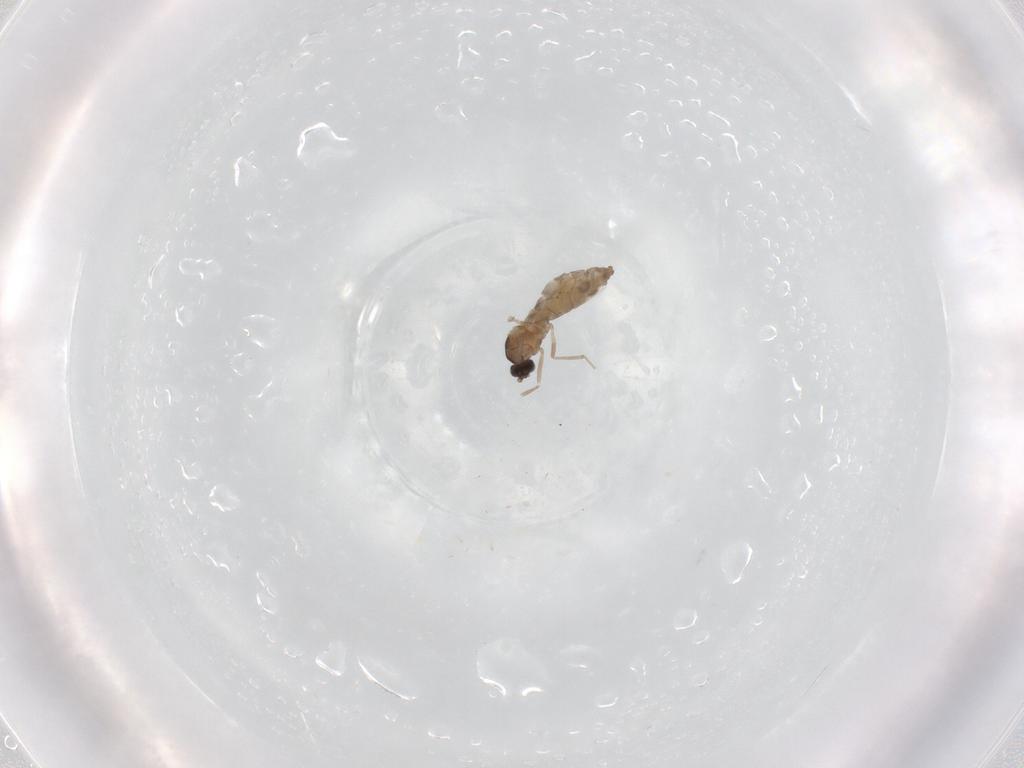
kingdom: Animalia
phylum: Arthropoda
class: Insecta
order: Diptera
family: Cecidomyiidae
